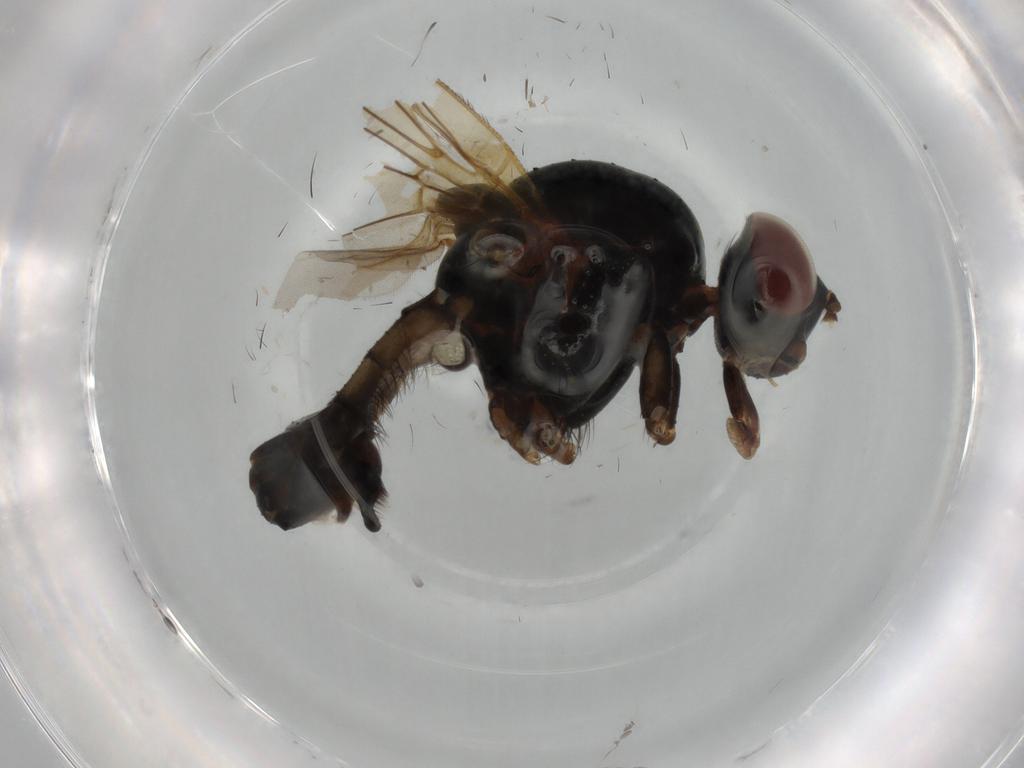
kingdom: Animalia
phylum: Arthropoda
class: Insecta
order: Diptera
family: Anthomyiidae
